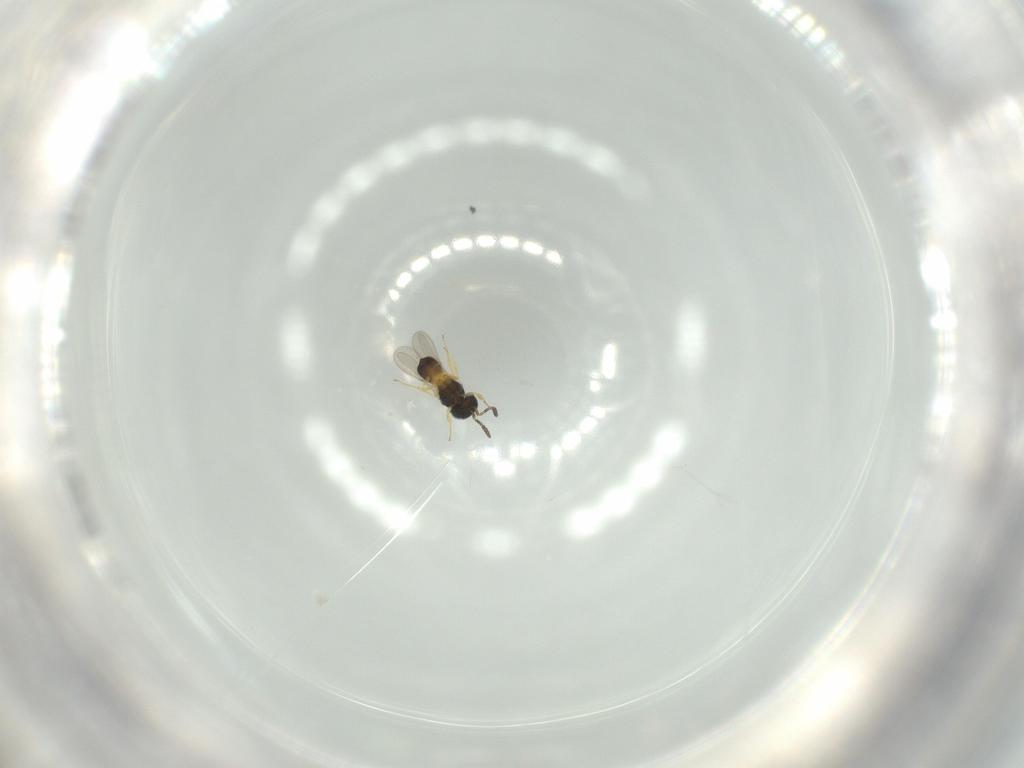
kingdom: Animalia
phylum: Arthropoda
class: Insecta
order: Hymenoptera
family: Scelionidae
